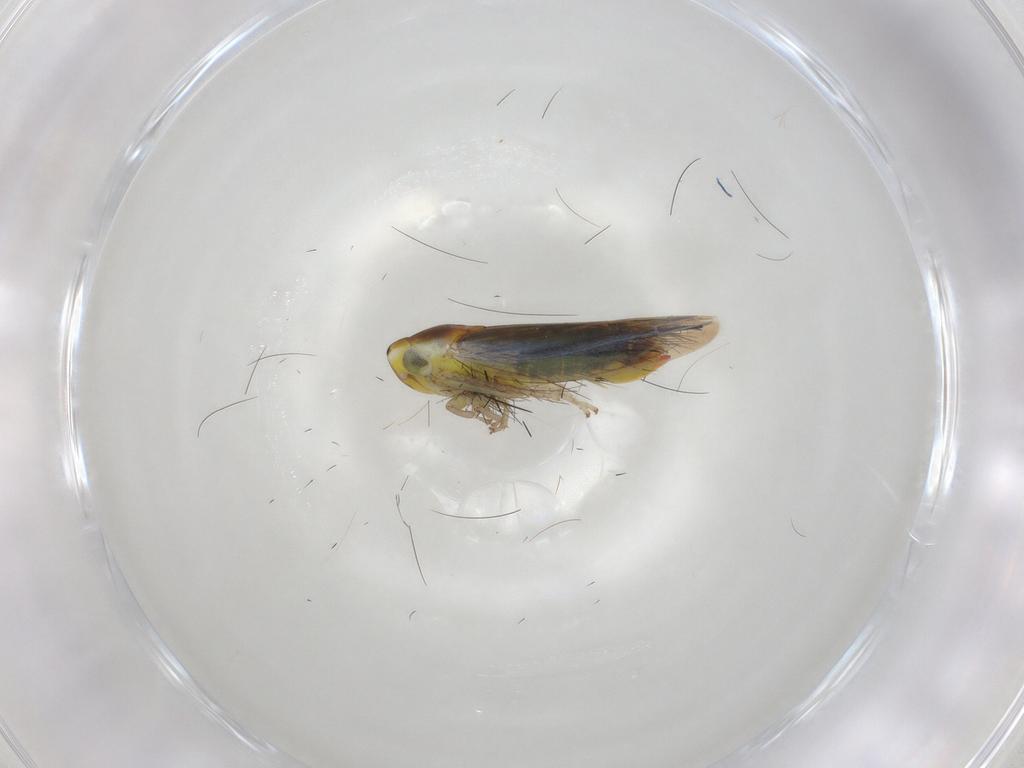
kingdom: Animalia
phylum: Arthropoda
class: Insecta
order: Hemiptera
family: Cicadellidae
